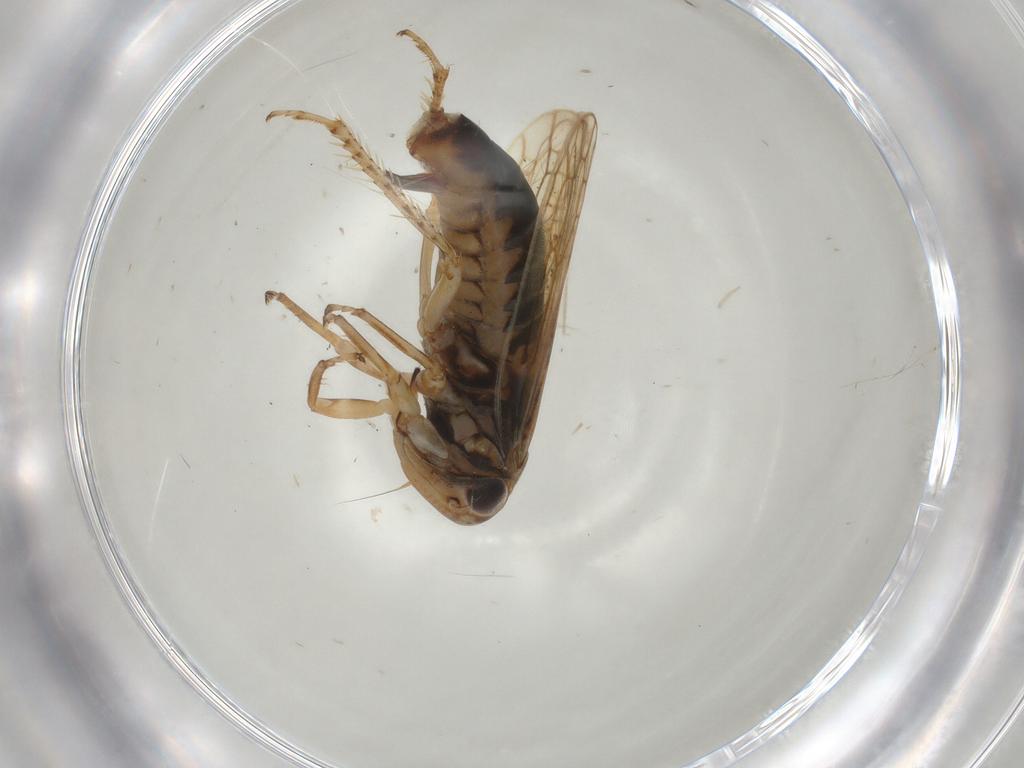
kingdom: Animalia
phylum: Arthropoda
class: Insecta
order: Hemiptera
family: Cicadellidae
